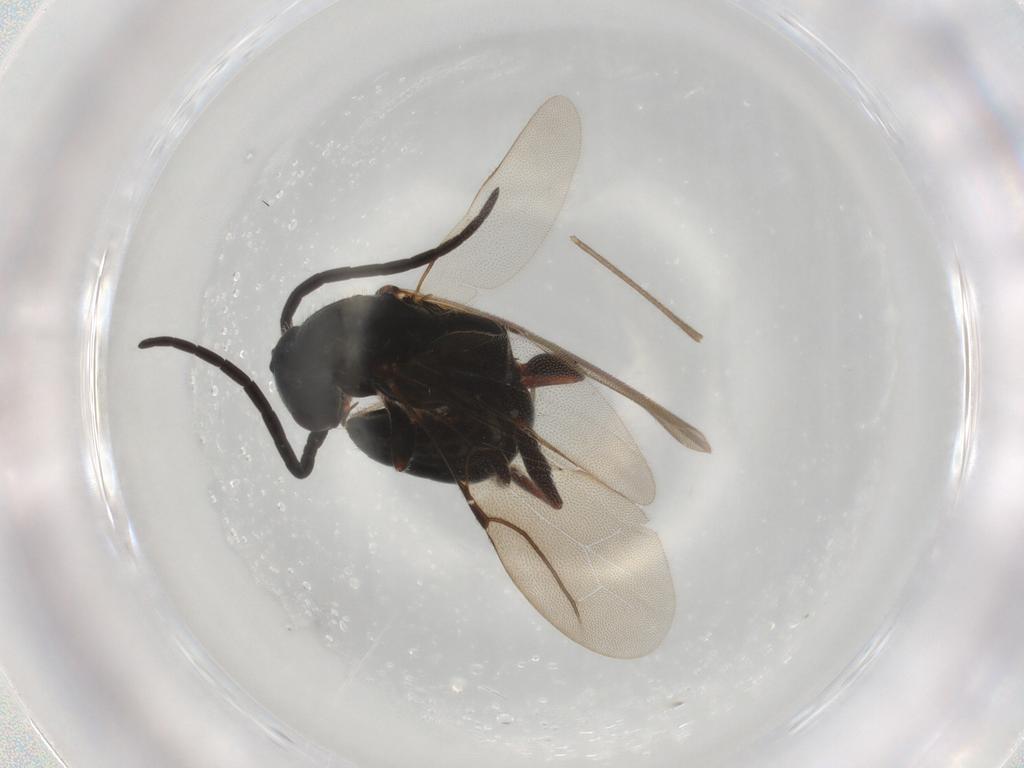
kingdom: Animalia
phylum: Arthropoda
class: Insecta
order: Hymenoptera
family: Bethylidae
